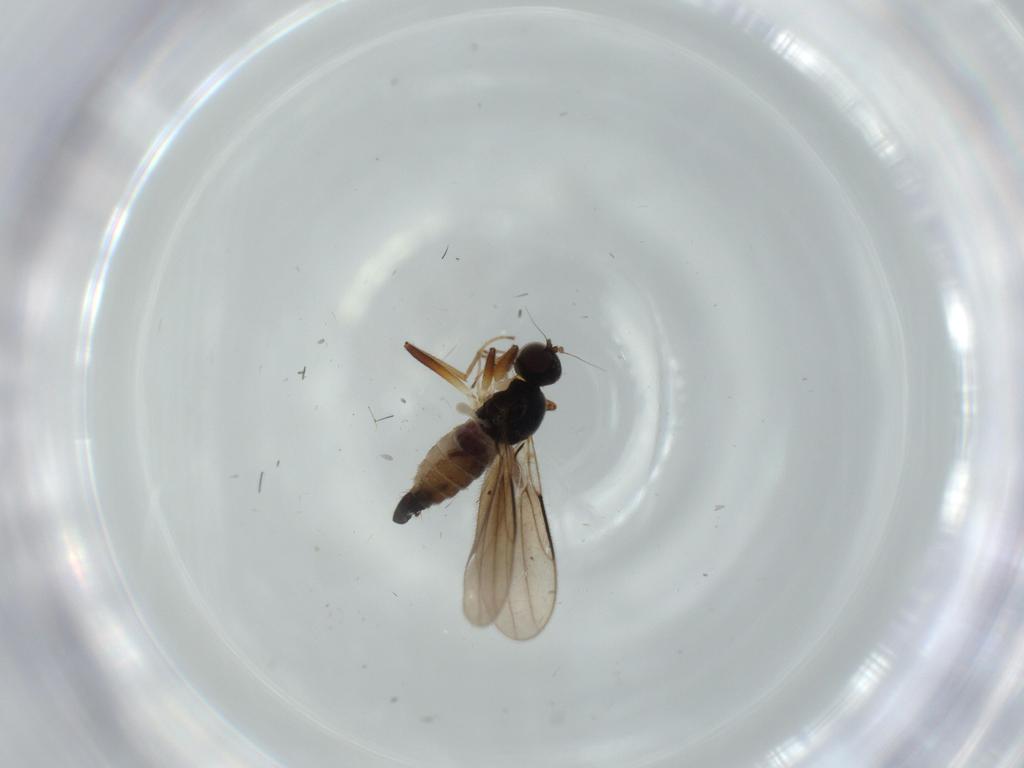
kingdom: Animalia
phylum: Arthropoda
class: Insecta
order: Diptera
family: Hybotidae
